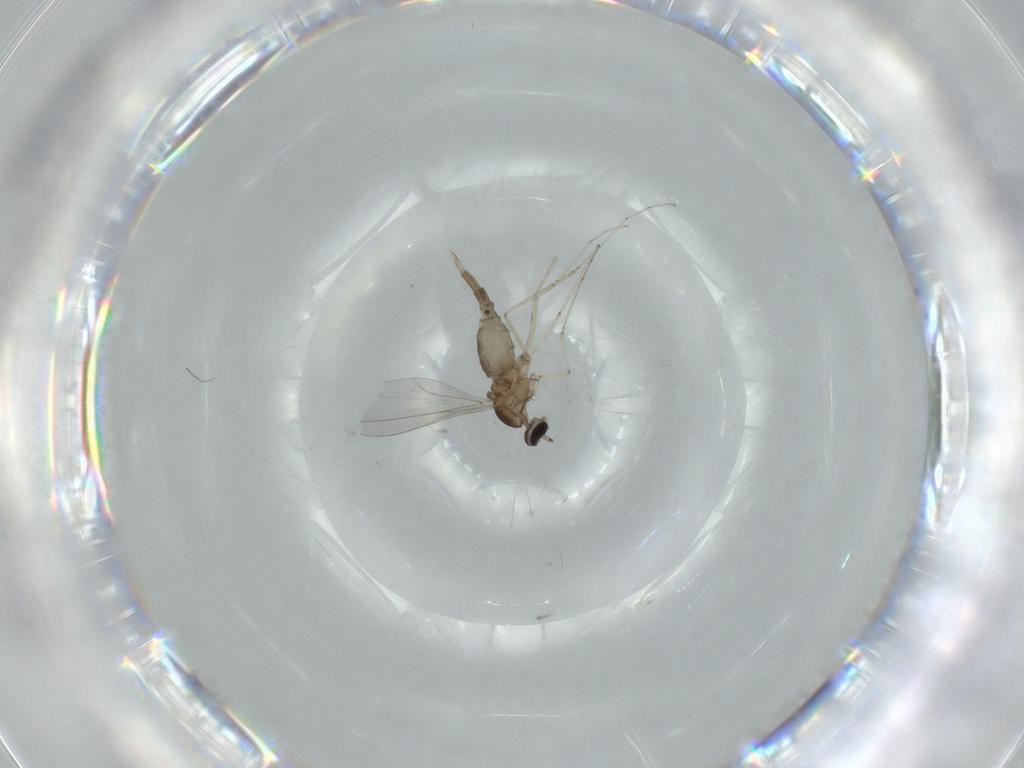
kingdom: Animalia
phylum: Arthropoda
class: Insecta
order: Diptera
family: Cecidomyiidae
